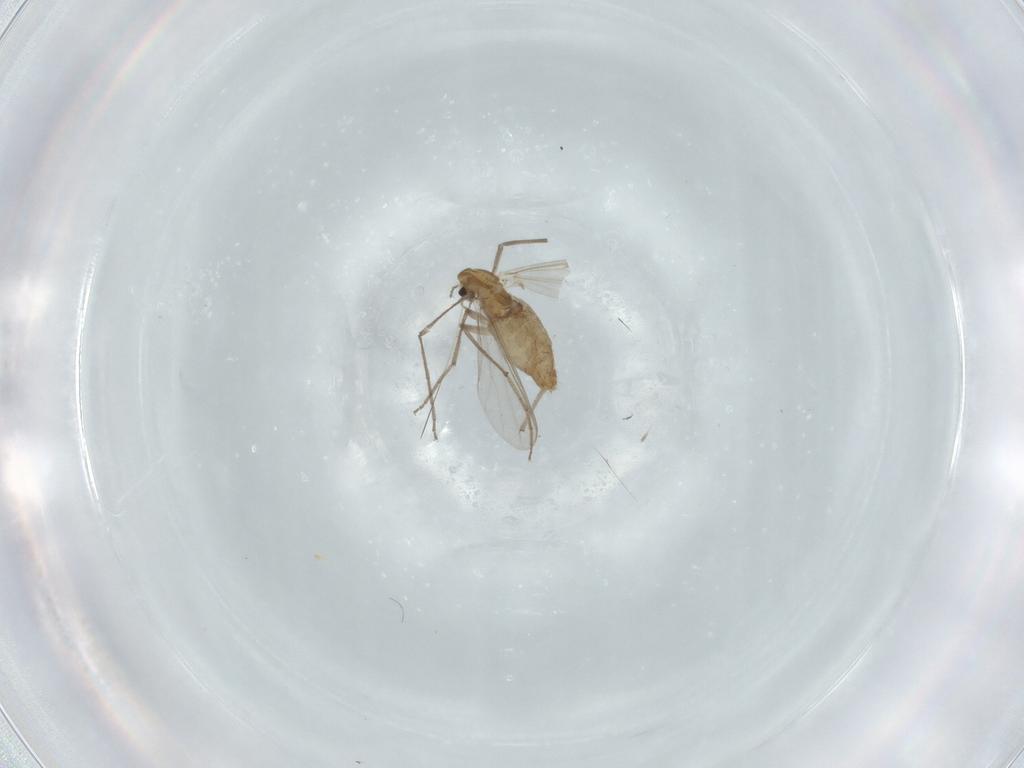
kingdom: Animalia
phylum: Arthropoda
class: Insecta
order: Diptera
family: Chironomidae
